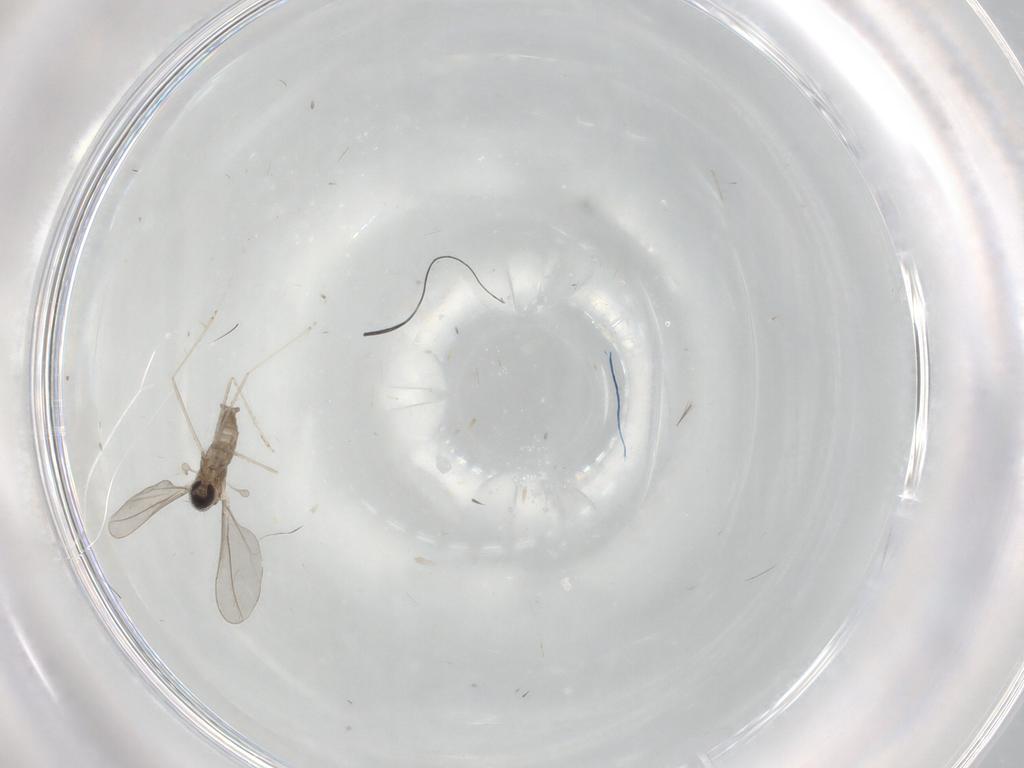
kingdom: Animalia
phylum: Arthropoda
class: Insecta
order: Diptera
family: Cecidomyiidae
